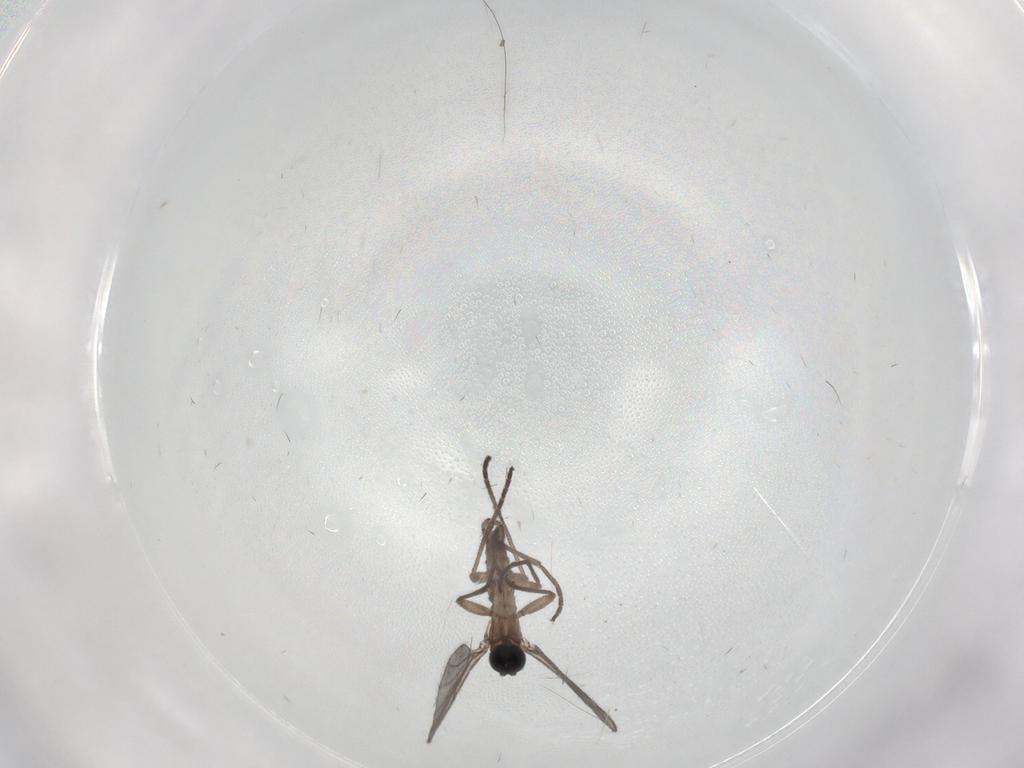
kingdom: Animalia
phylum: Arthropoda
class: Insecta
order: Diptera
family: Sciaridae
